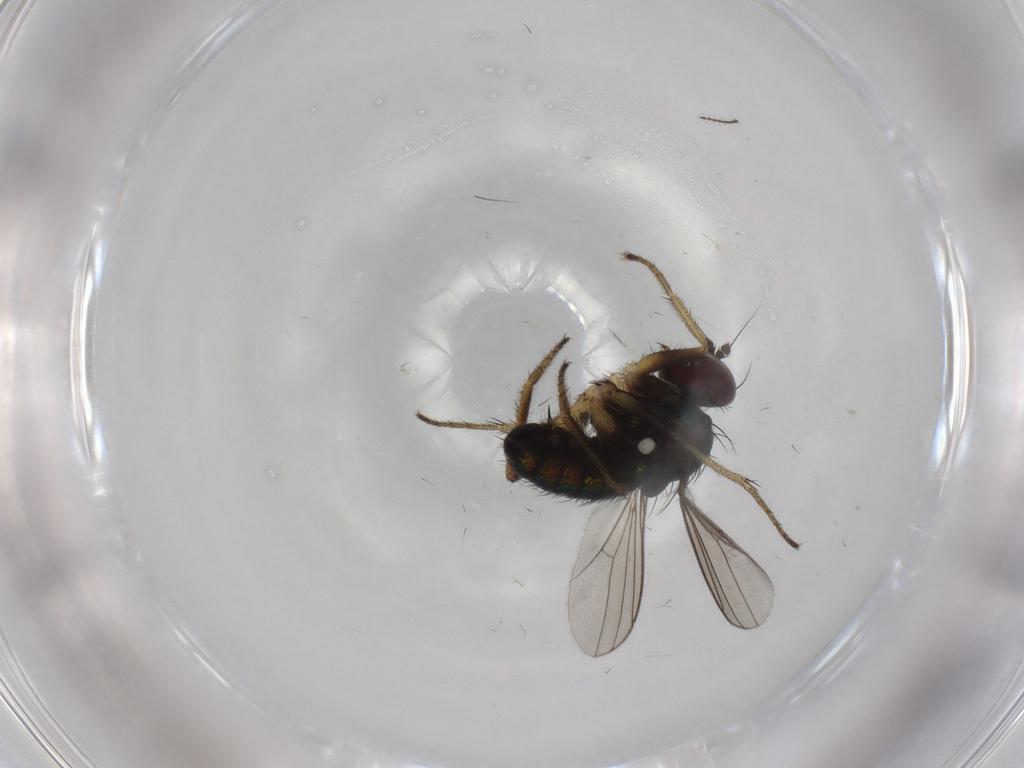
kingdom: Animalia
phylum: Arthropoda
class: Insecta
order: Diptera
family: Dolichopodidae
